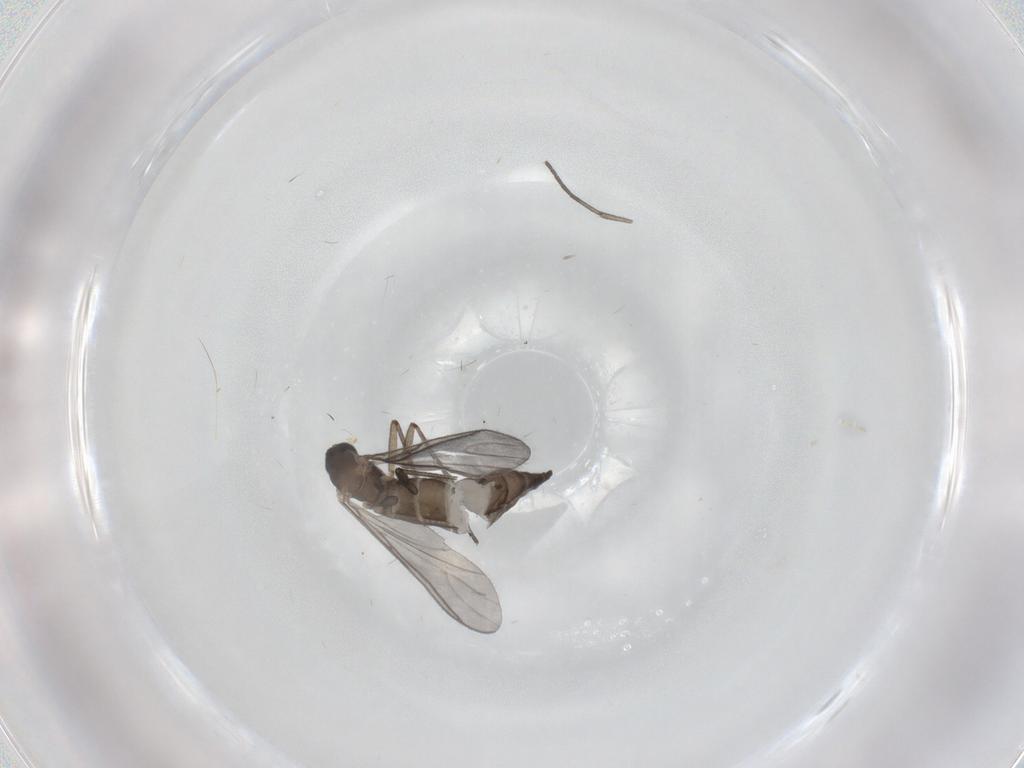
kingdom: Animalia
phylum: Arthropoda
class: Insecta
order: Diptera
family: Sciaridae
